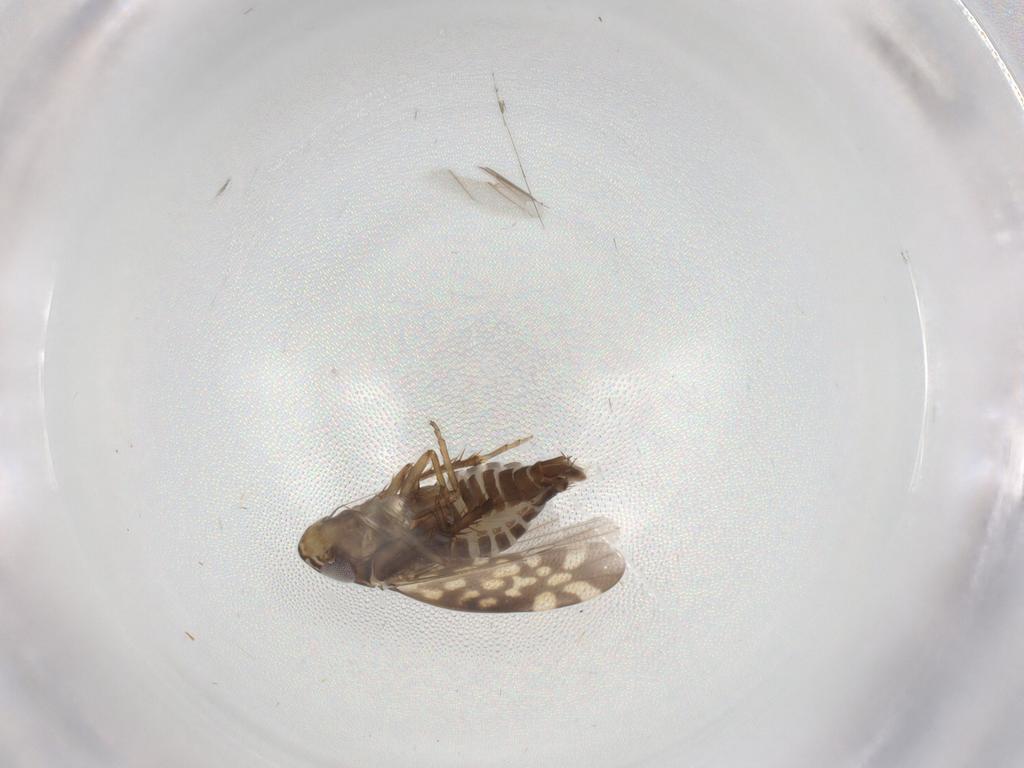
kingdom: Animalia
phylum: Arthropoda
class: Insecta
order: Hemiptera
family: Cicadellidae
